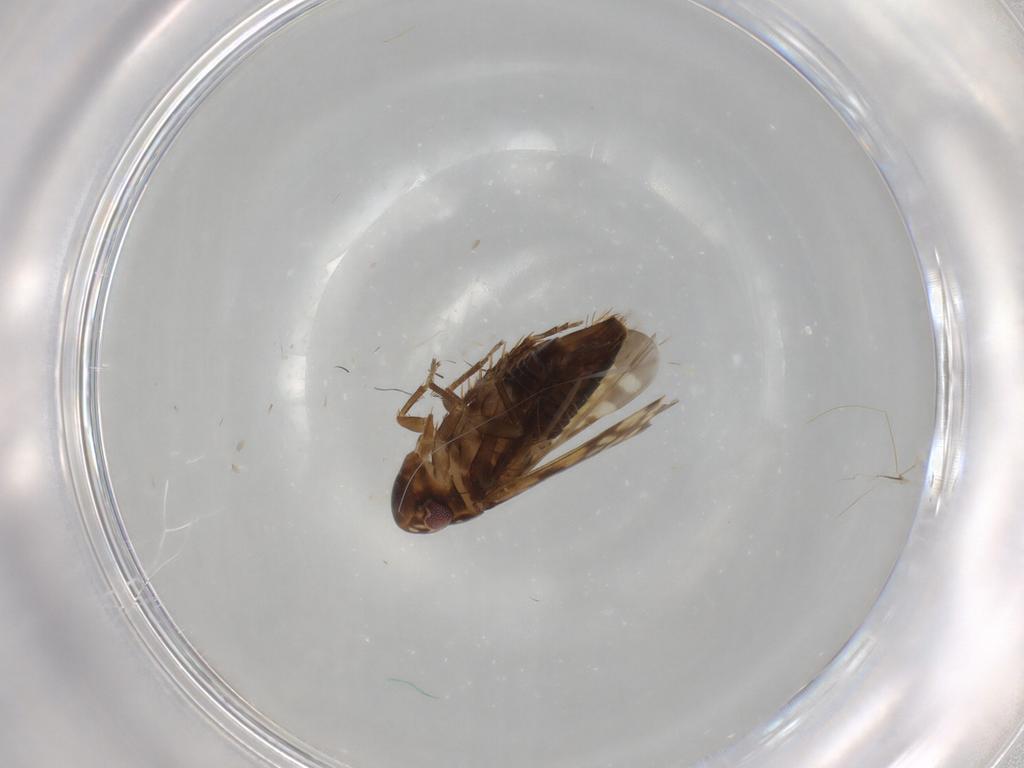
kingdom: Animalia
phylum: Arthropoda
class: Insecta
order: Hemiptera
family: Cicadellidae
